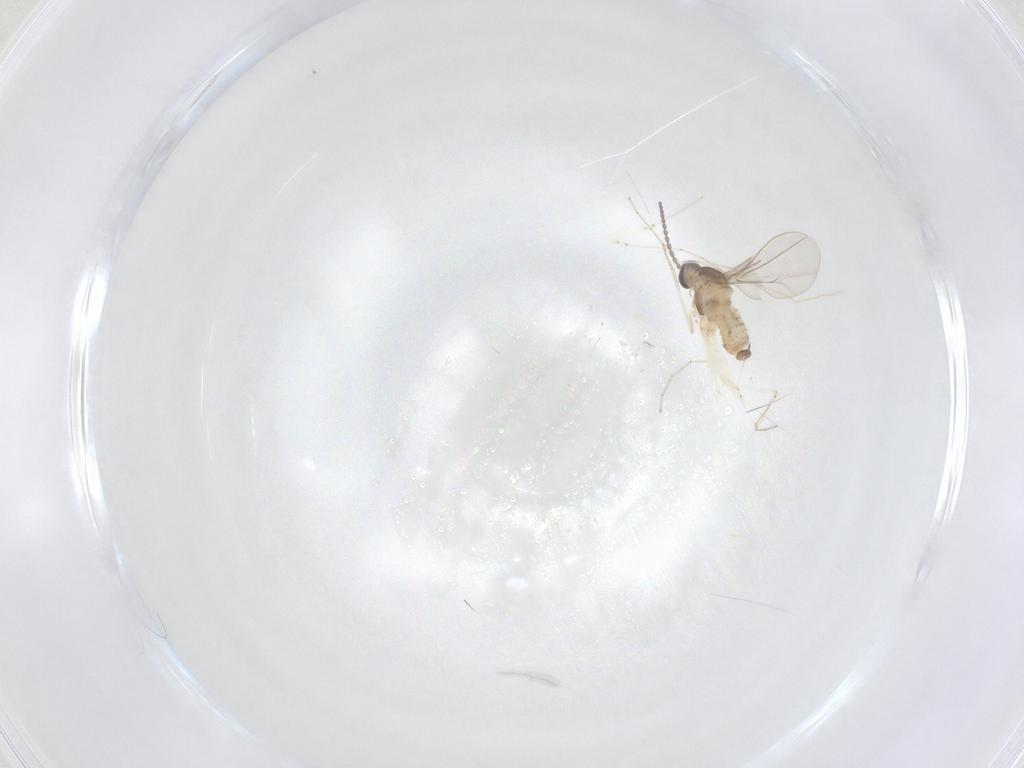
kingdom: Animalia
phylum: Arthropoda
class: Insecta
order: Diptera
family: Cecidomyiidae
